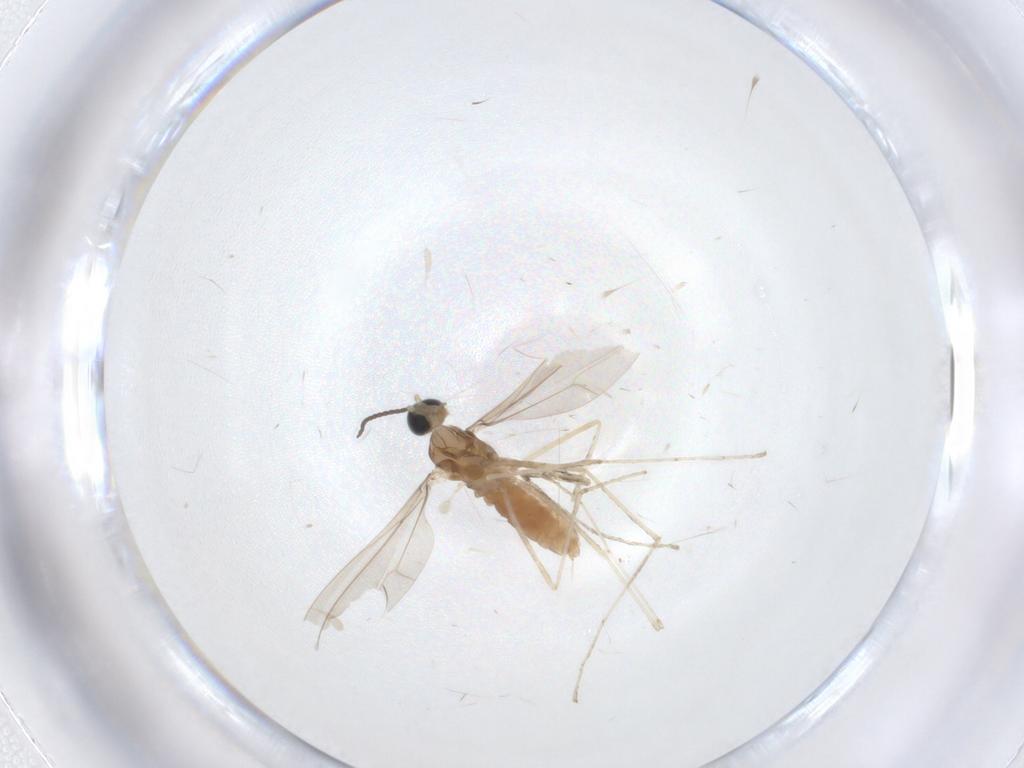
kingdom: Animalia
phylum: Arthropoda
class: Insecta
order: Diptera
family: Cecidomyiidae
